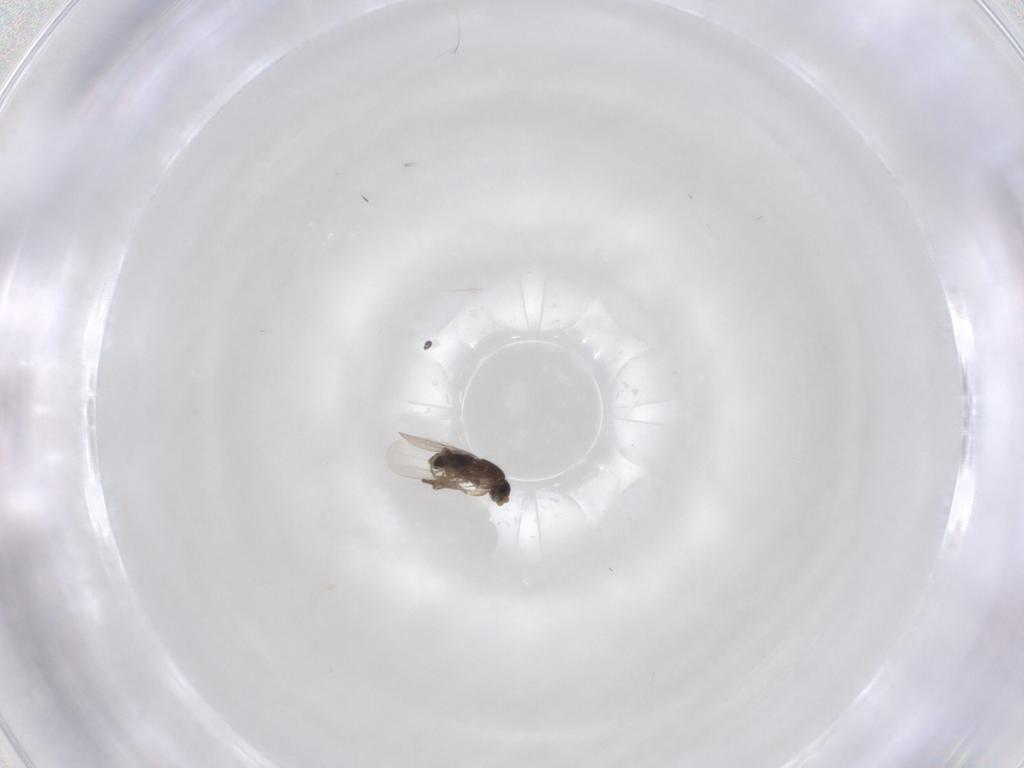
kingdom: Animalia
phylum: Arthropoda
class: Insecta
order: Diptera
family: Phoridae
